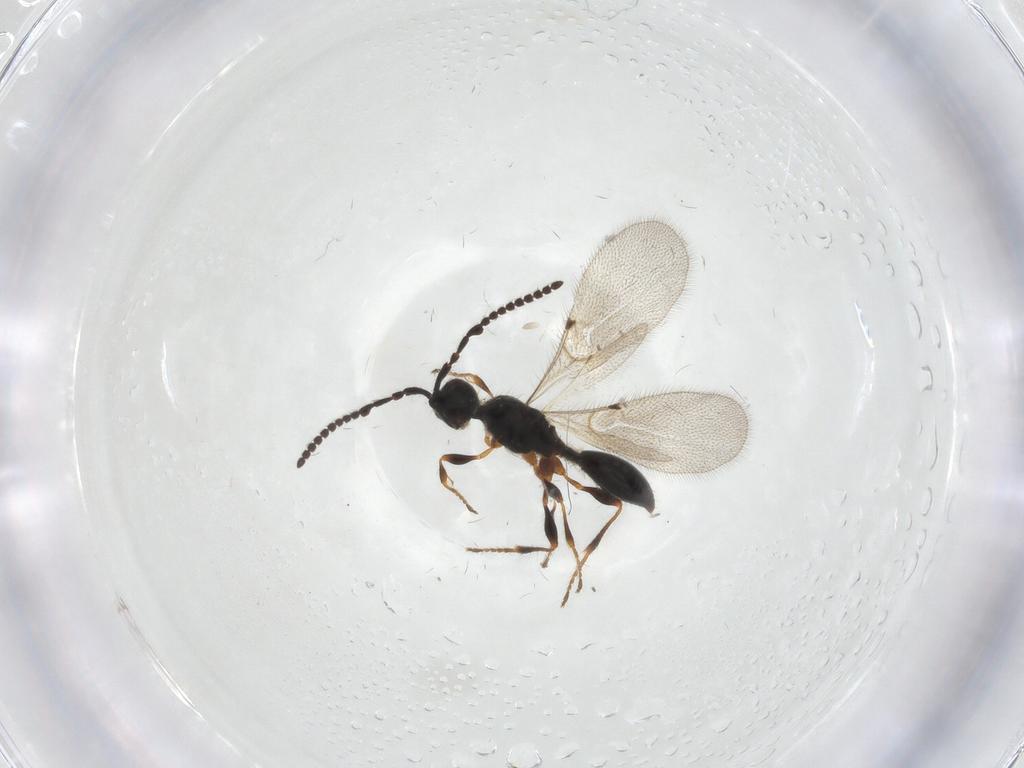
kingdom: Animalia
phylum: Arthropoda
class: Insecta
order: Hymenoptera
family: Diapriidae
